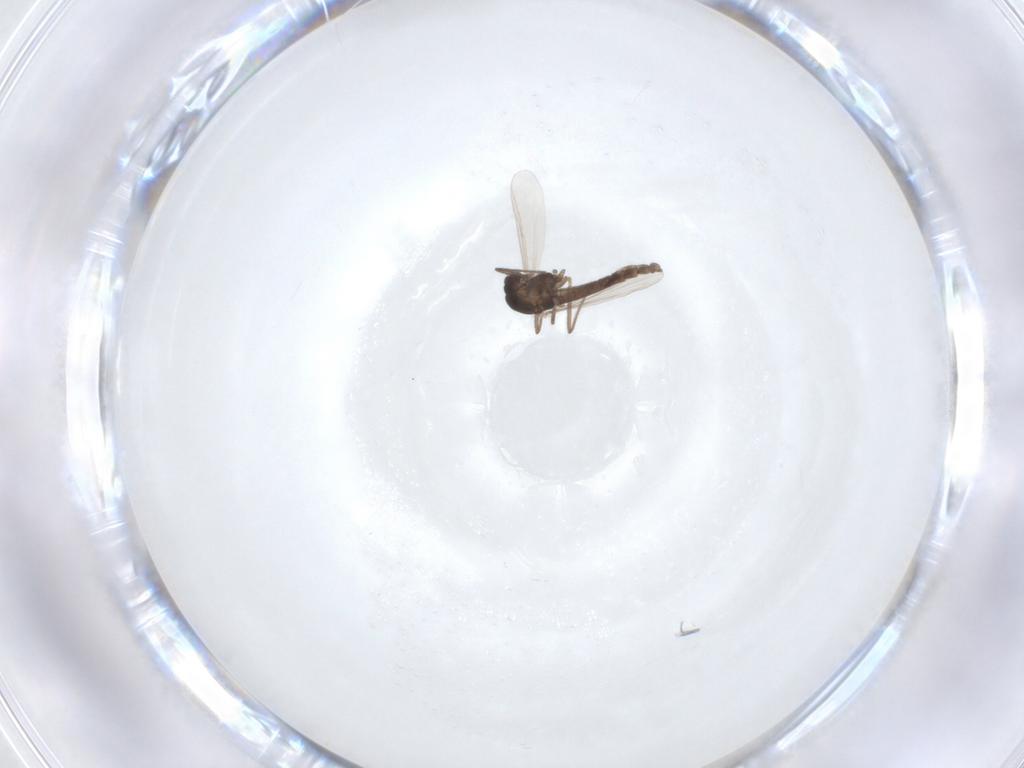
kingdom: Animalia
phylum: Arthropoda
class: Insecta
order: Diptera
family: Chironomidae
